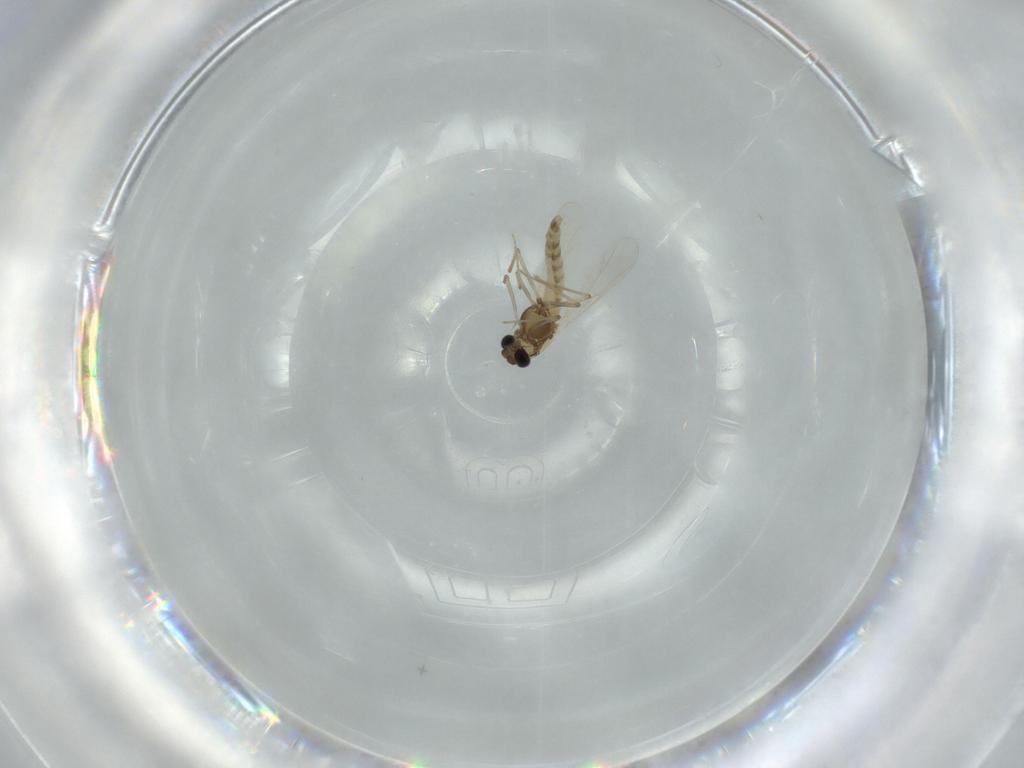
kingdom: Animalia
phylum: Arthropoda
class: Insecta
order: Diptera
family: Chironomidae
